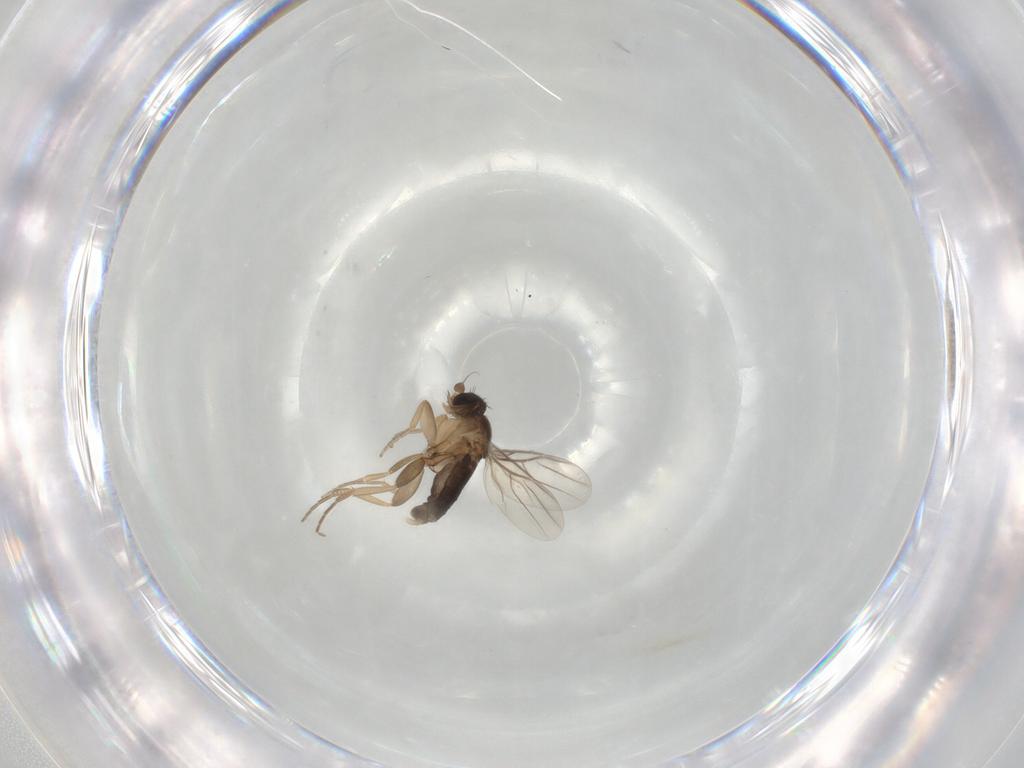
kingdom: Animalia
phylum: Arthropoda
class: Insecta
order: Diptera
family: Phoridae
